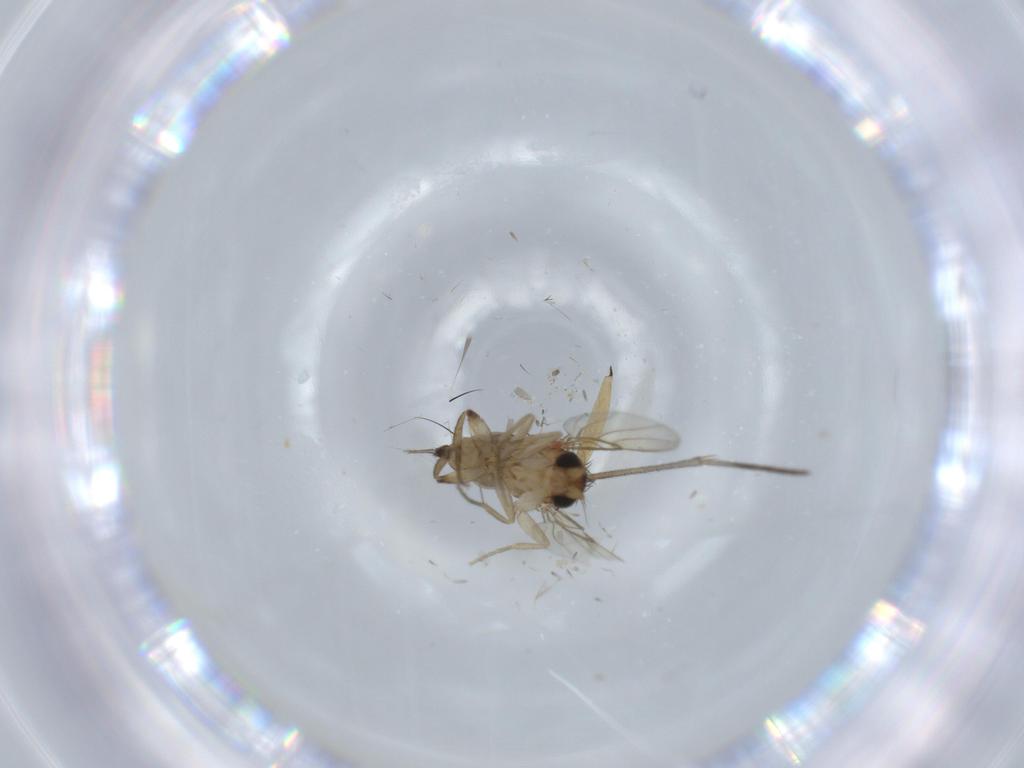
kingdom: Animalia
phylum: Arthropoda
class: Insecta
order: Diptera
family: Sciaridae
